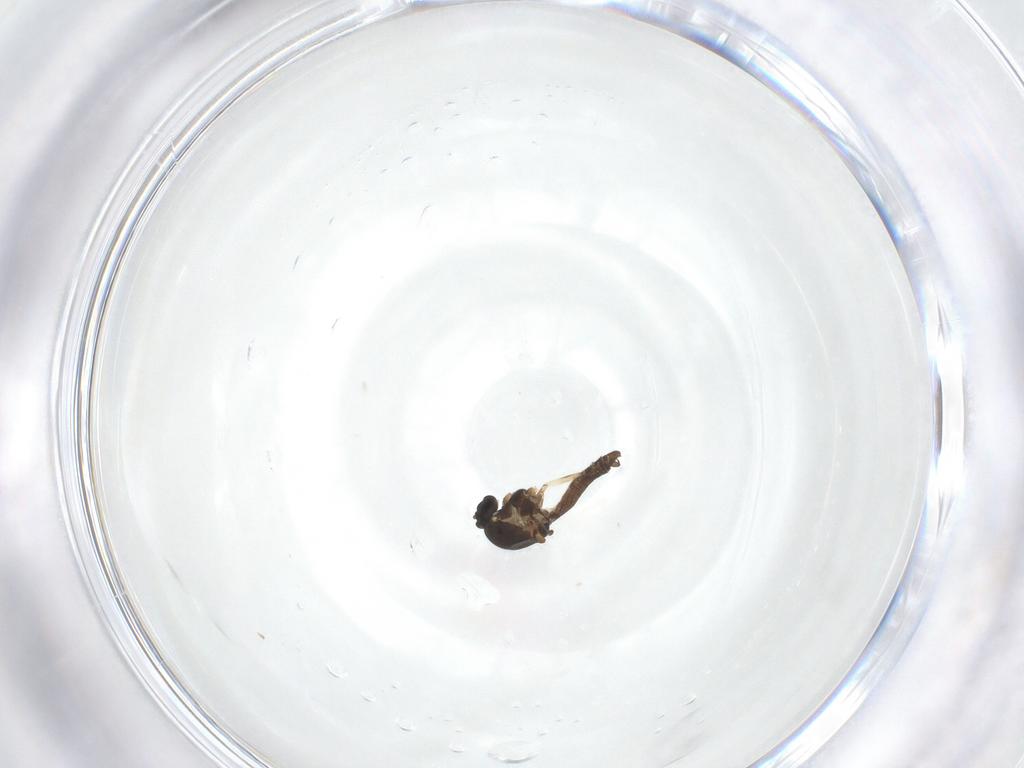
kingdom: Animalia
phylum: Arthropoda
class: Insecta
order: Diptera
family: Ceratopogonidae
